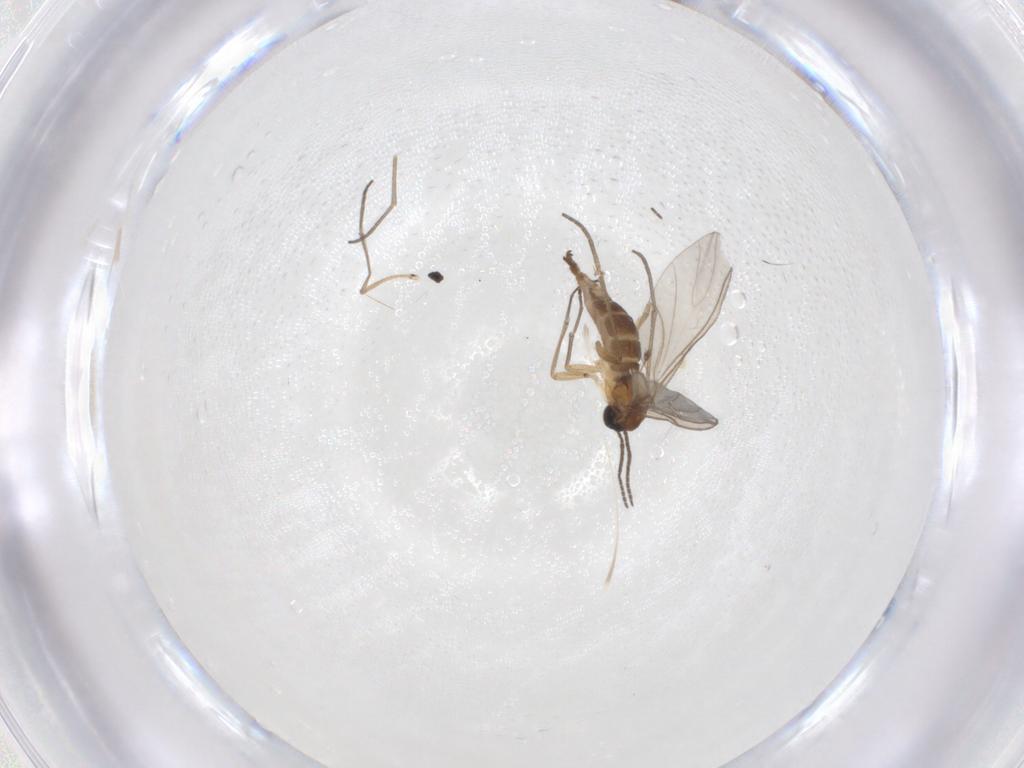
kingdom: Animalia
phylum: Arthropoda
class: Insecta
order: Diptera
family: Sciaridae
